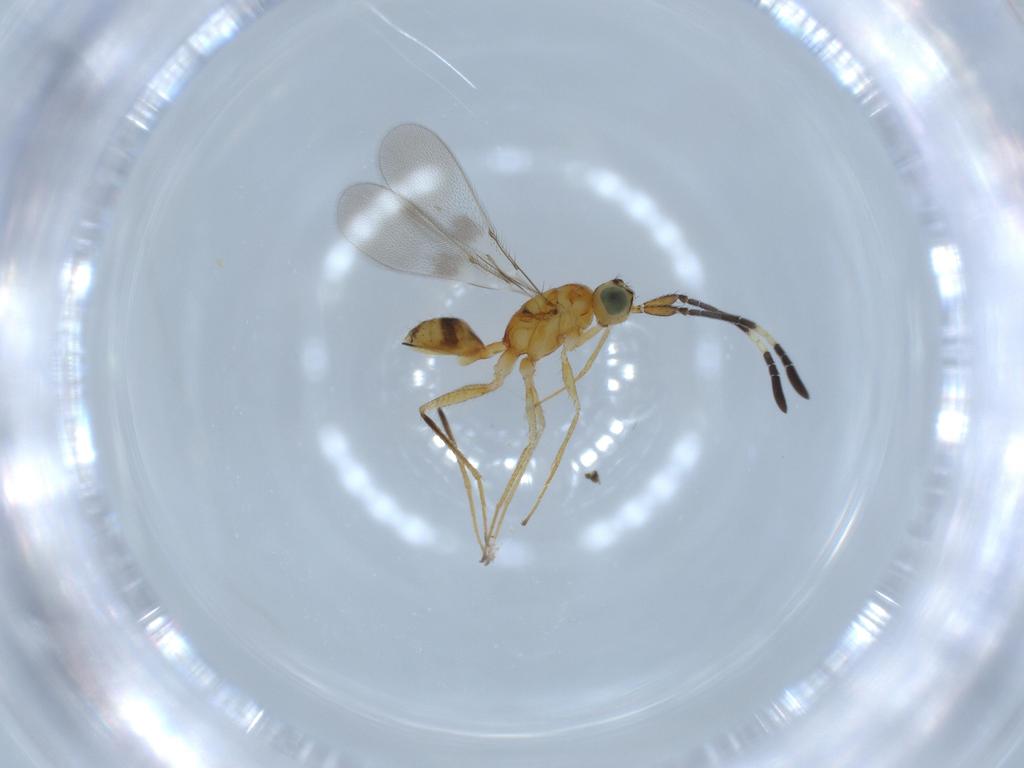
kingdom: Animalia
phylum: Arthropoda
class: Insecta
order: Hymenoptera
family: Mymaridae
